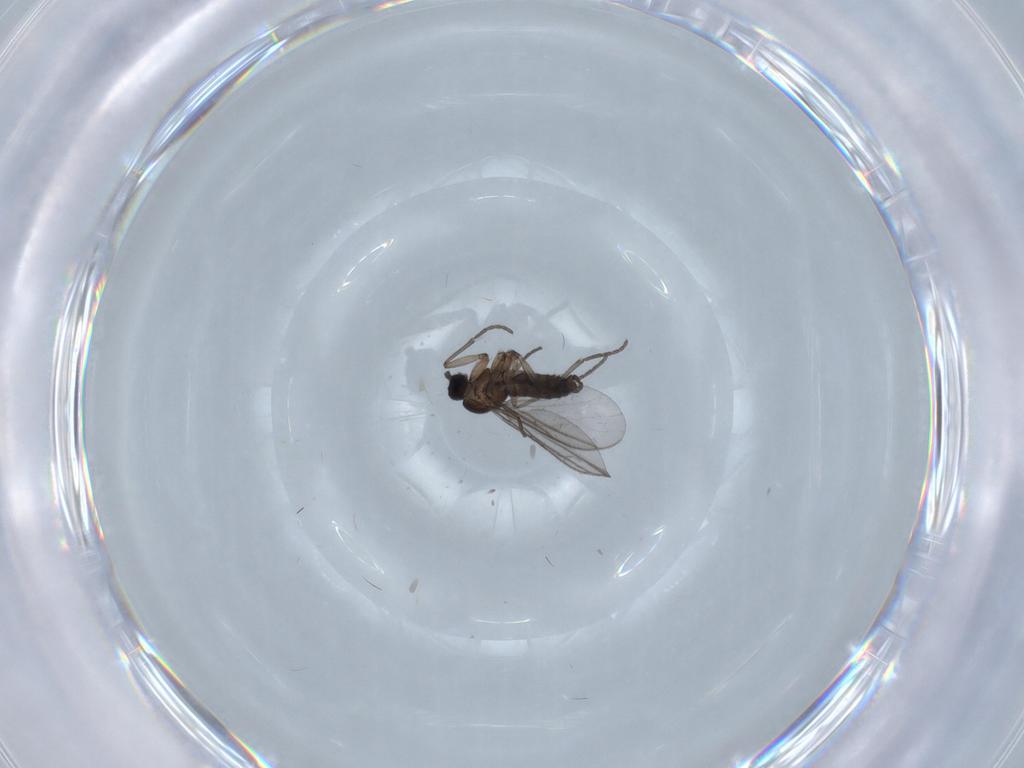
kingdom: Animalia
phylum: Arthropoda
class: Insecta
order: Diptera
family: Chironomidae
